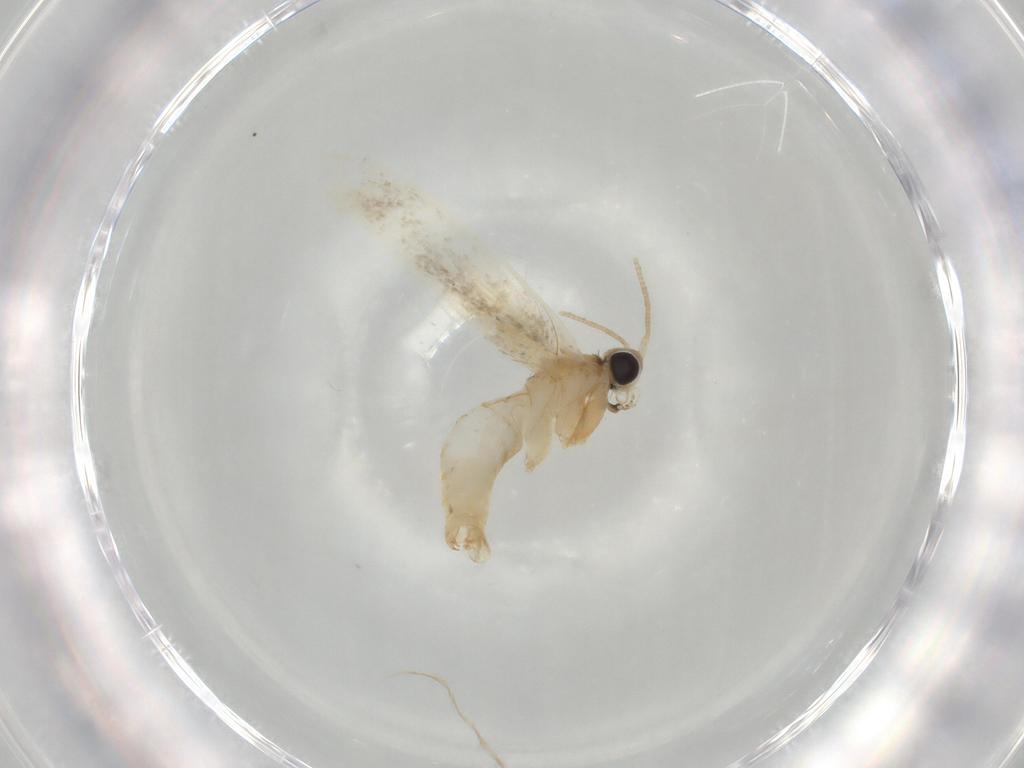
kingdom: Animalia
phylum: Arthropoda
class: Insecta
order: Lepidoptera
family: Tineidae
